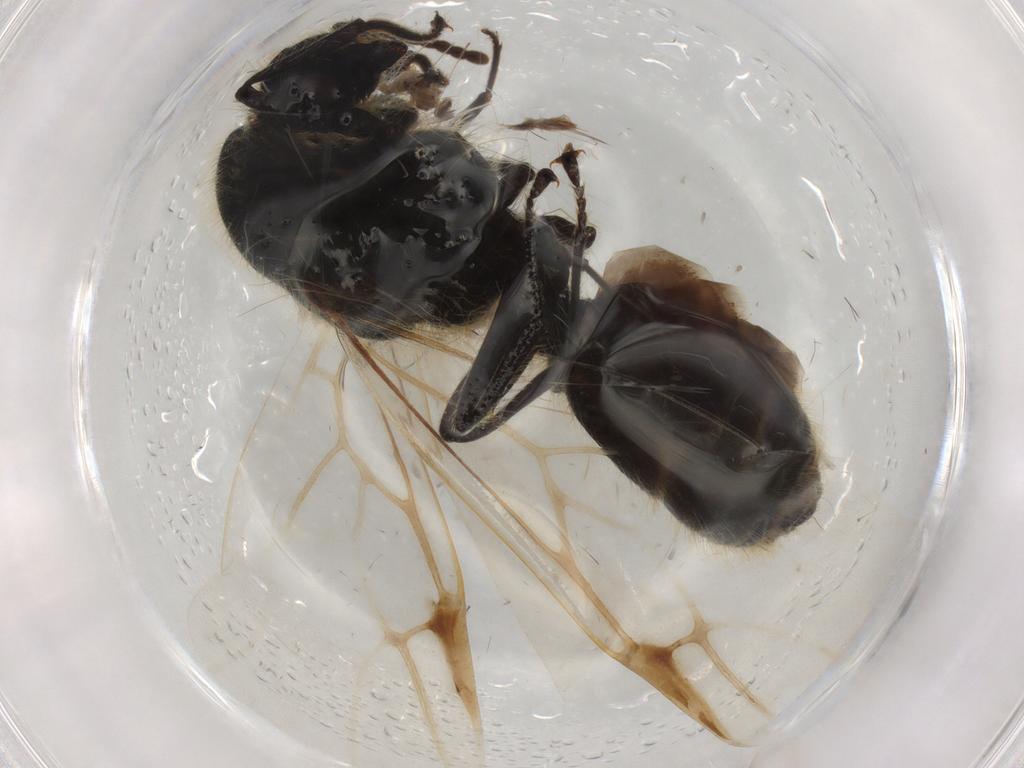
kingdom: Animalia
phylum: Arthropoda
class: Insecta
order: Hymenoptera
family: Formicidae
